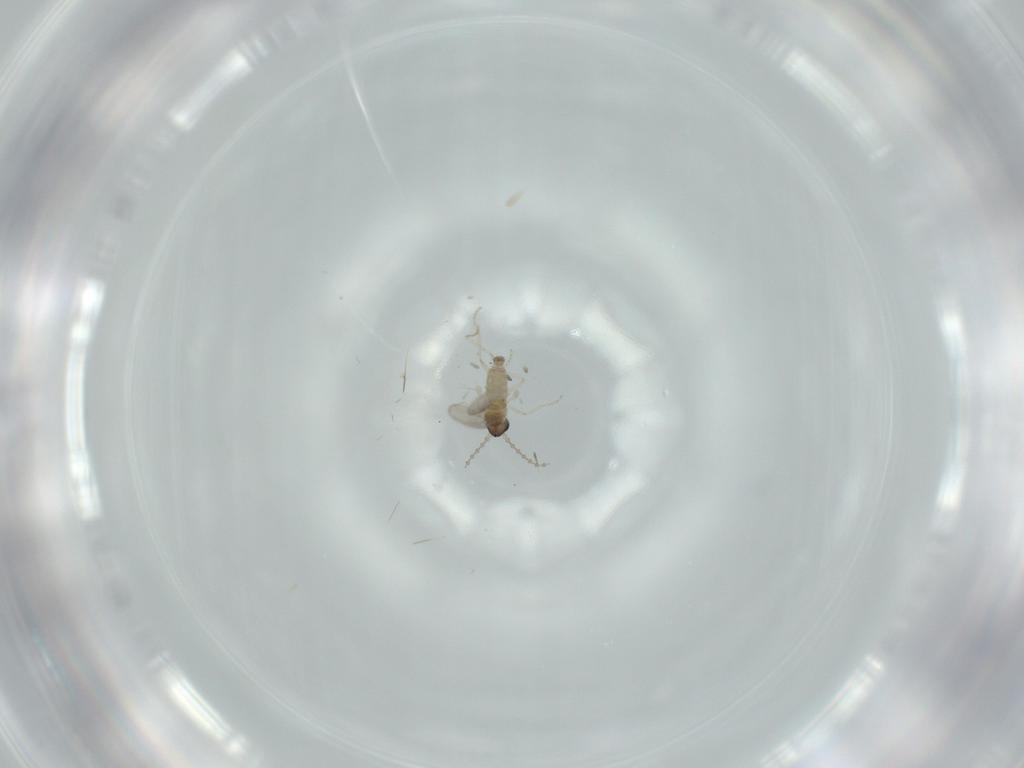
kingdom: Animalia
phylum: Arthropoda
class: Insecta
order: Diptera
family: Cecidomyiidae
